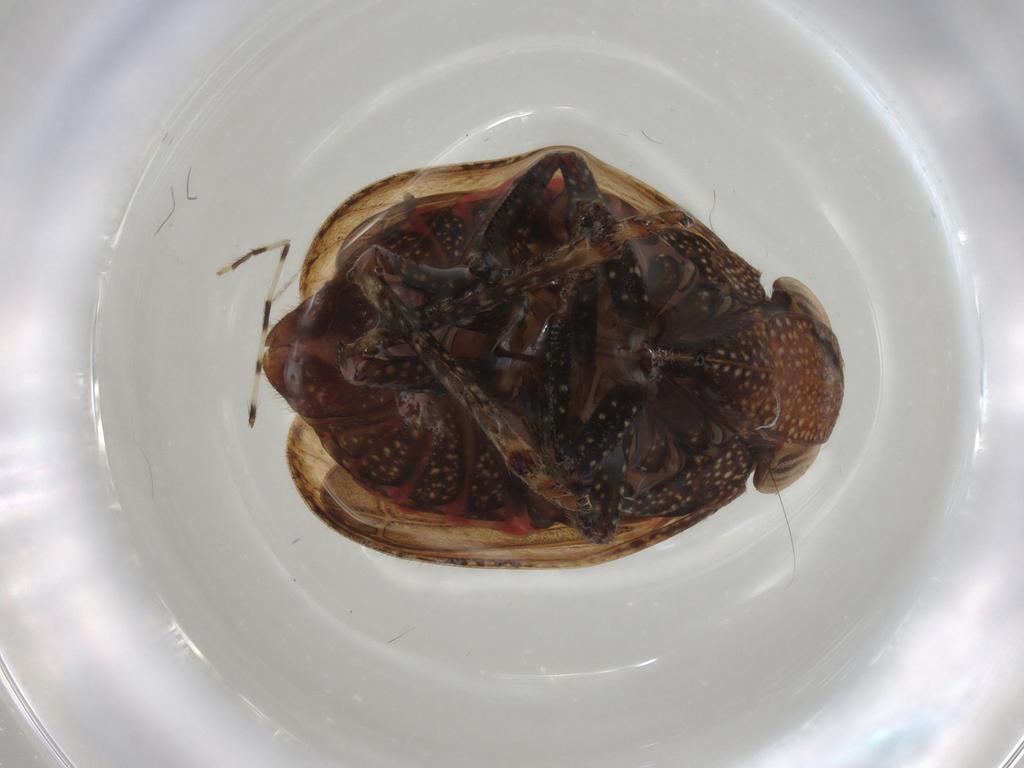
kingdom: Animalia
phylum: Arthropoda
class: Insecta
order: Hemiptera
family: Tropiduchidae
